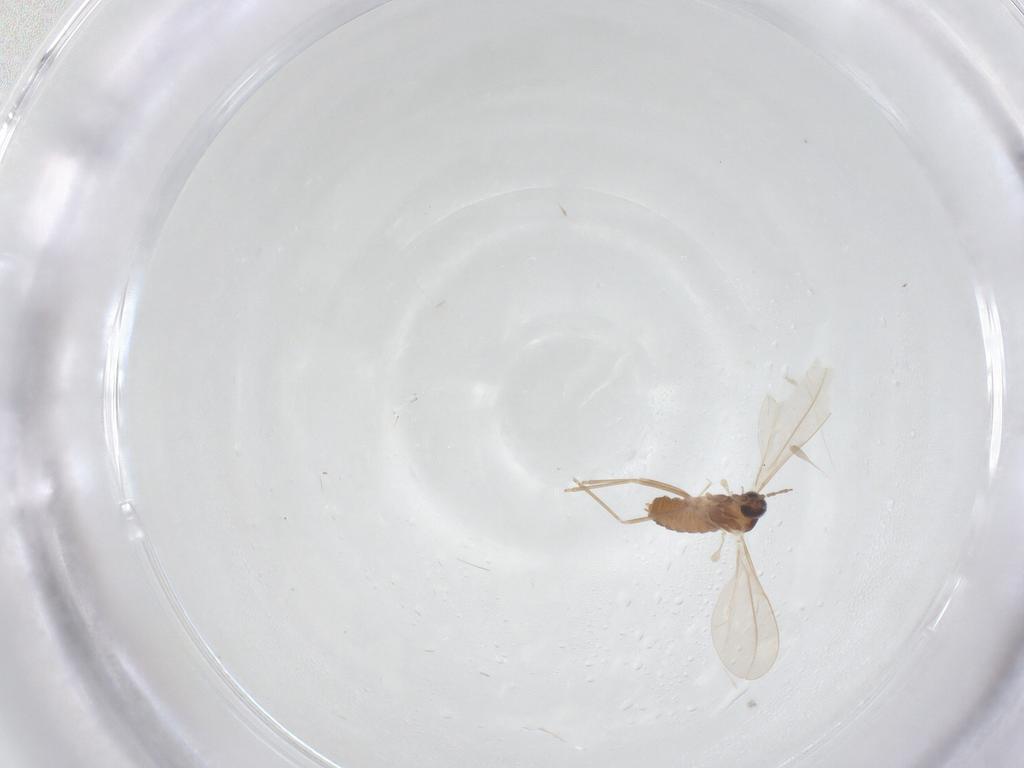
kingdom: Animalia
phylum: Arthropoda
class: Insecta
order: Diptera
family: Cecidomyiidae
